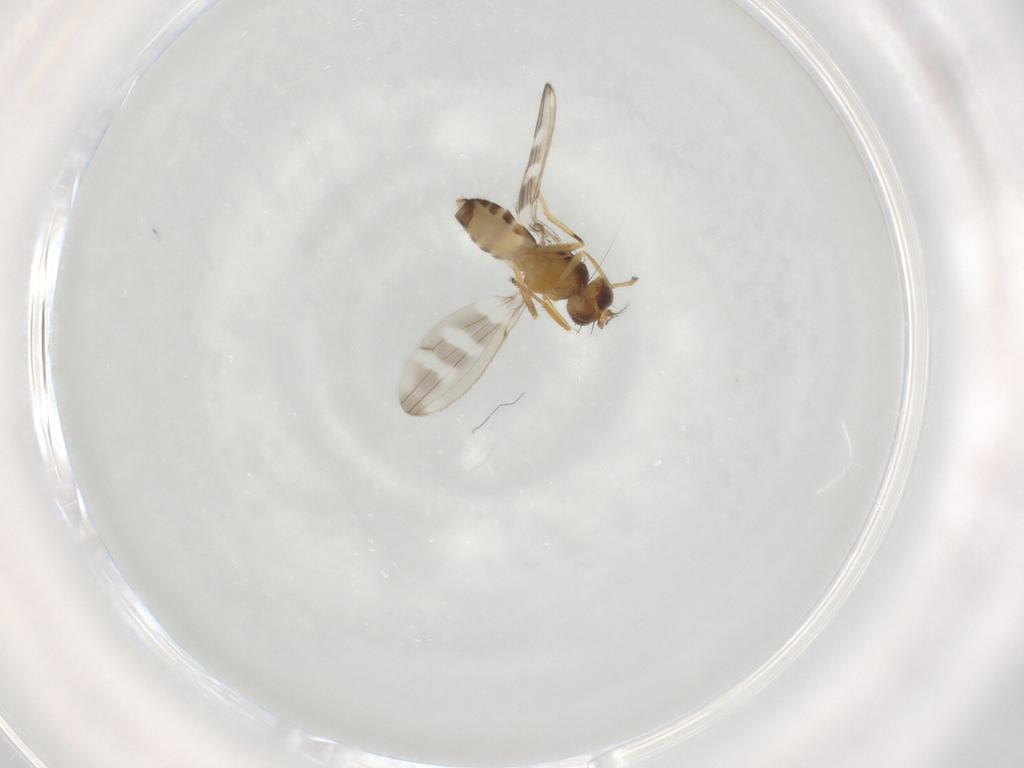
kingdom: Animalia
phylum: Arthropoda
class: Insecta
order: Diptera
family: Periscelididae
